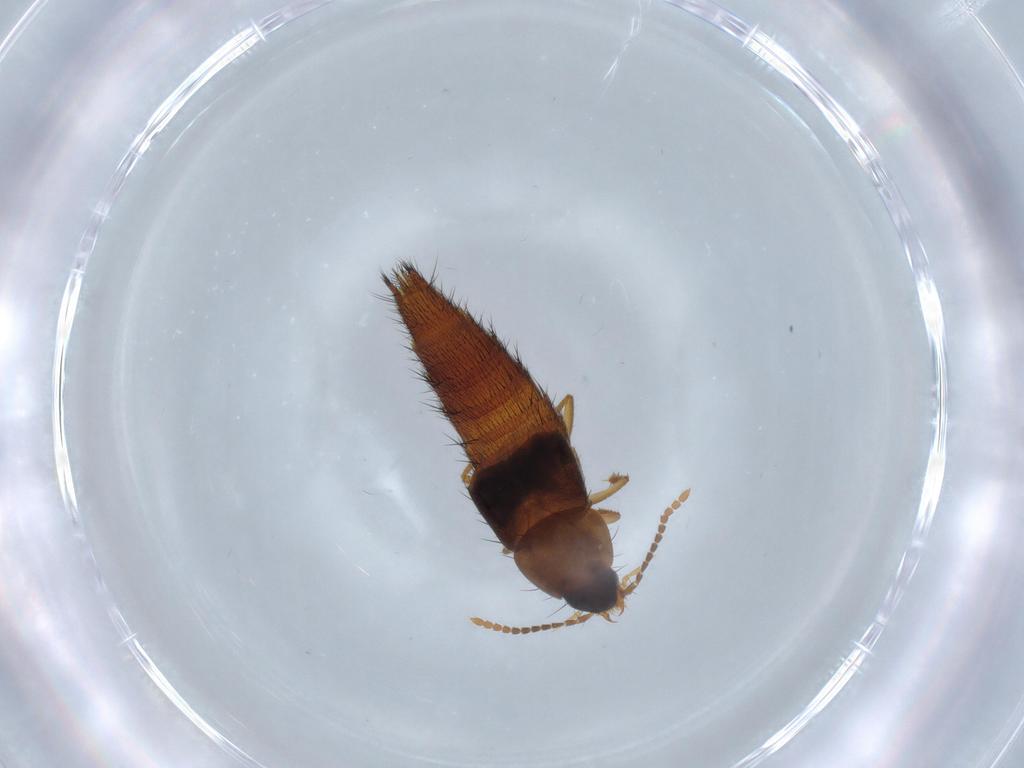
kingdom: Animalia
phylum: Arthropoda
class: Insecta
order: Coleoptera
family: Staphylinidae
